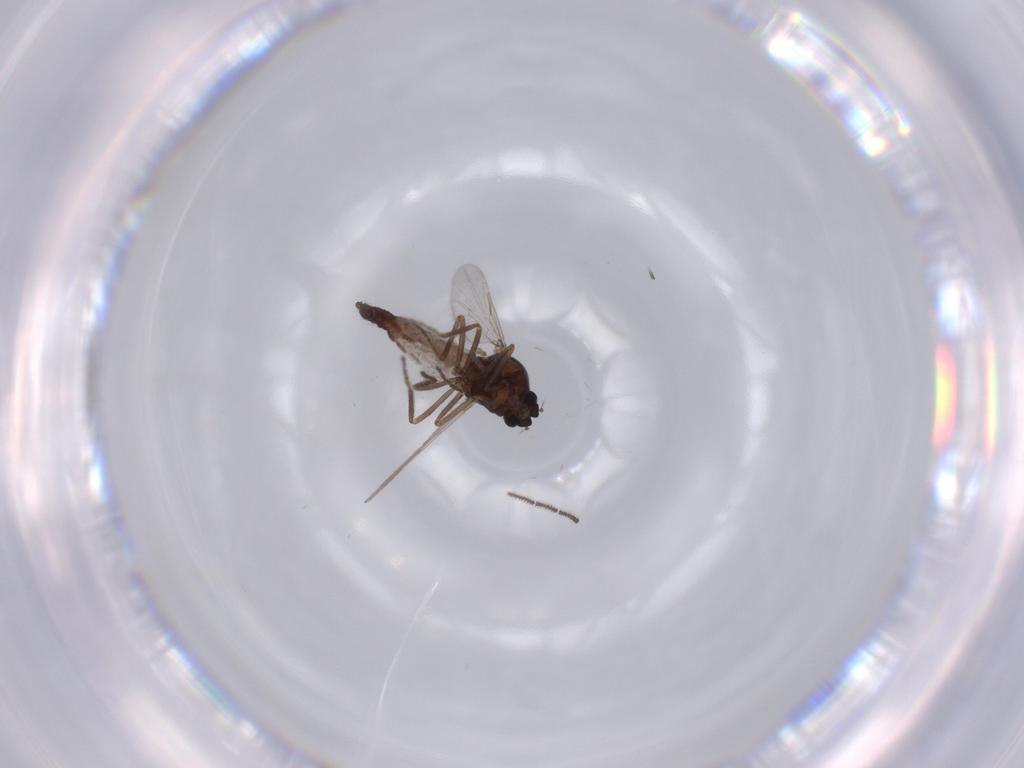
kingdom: Animalia
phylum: Arthropoda
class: Insecta
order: Diptera
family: Ceratopogonidae
